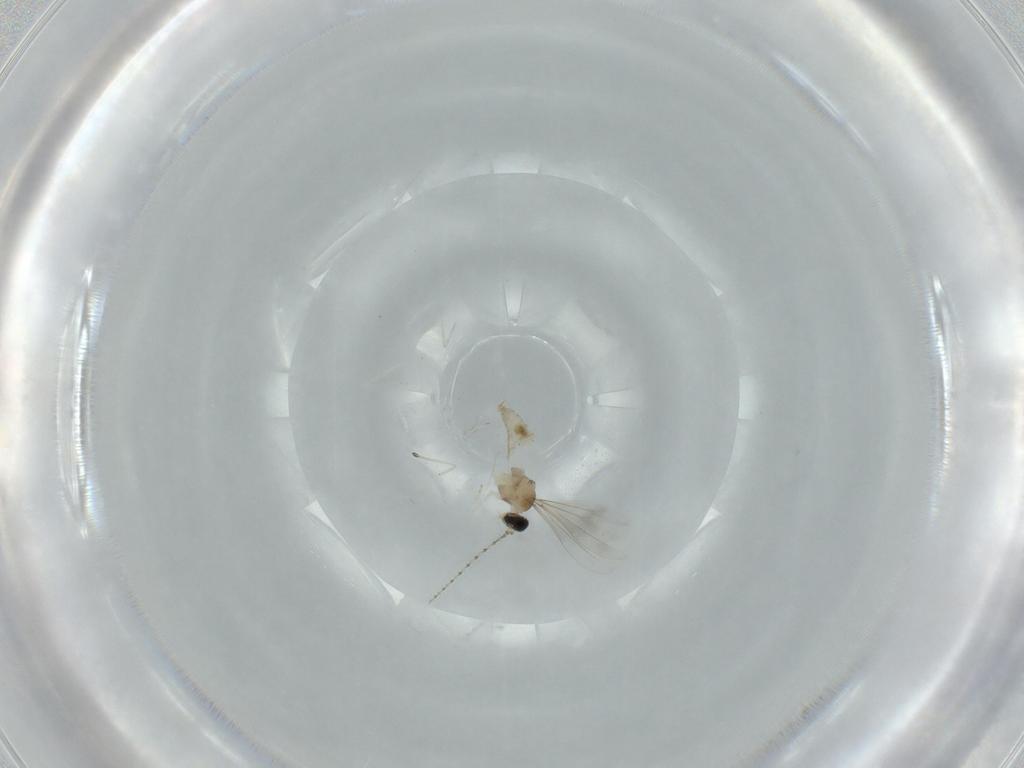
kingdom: Animalia
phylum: Arthropoda
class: Insecta
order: Diptera
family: Cecidomyiidae
